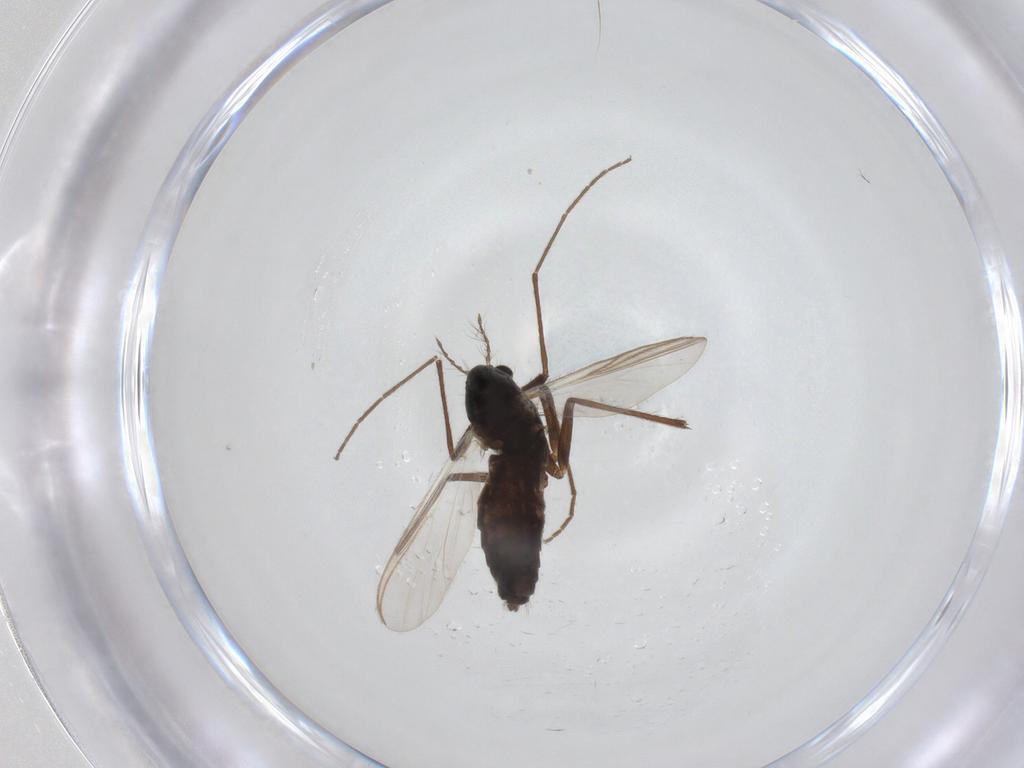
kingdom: Animalia
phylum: Arthropoda
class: Insecta
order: Diptera
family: Chironomidae
